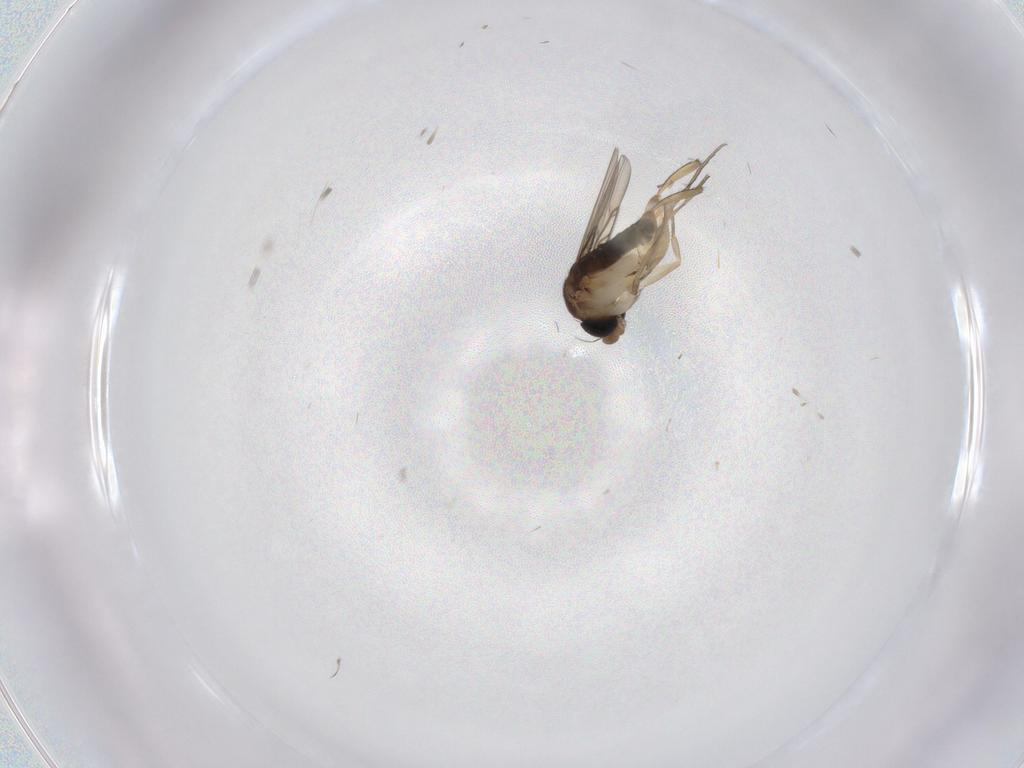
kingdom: Animalia
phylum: Arthropoda
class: Insecta
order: Diptera
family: Phoridae
